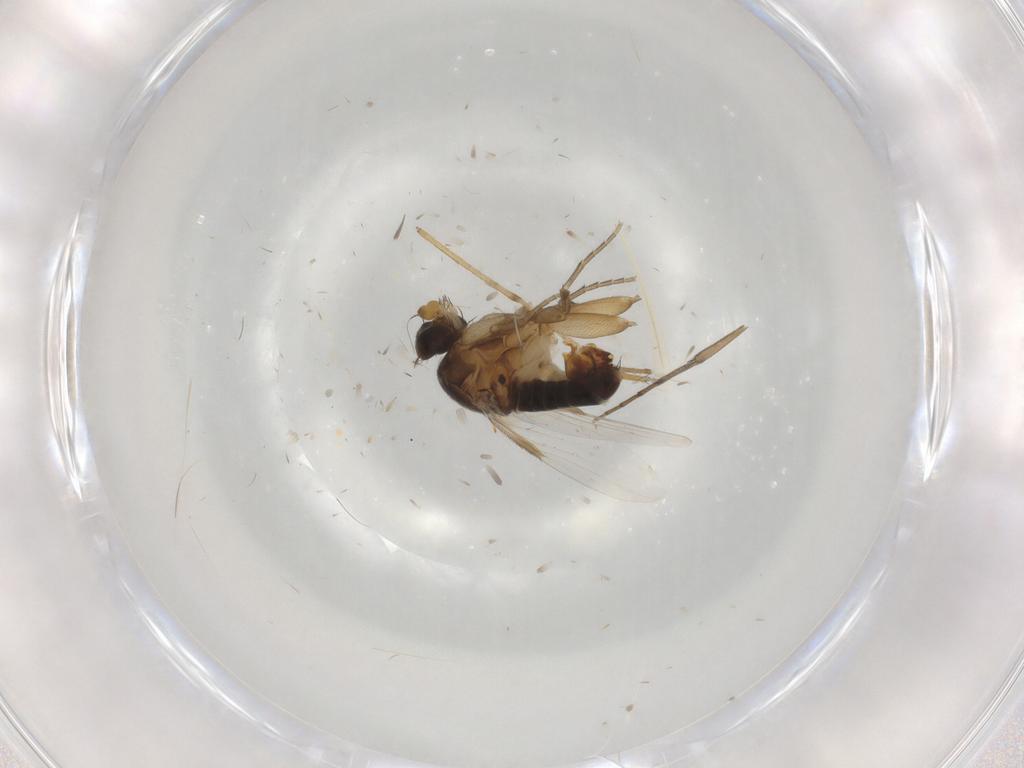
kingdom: Animalia
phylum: Arthropoda
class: Insecta
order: Diptera
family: Phoridae
